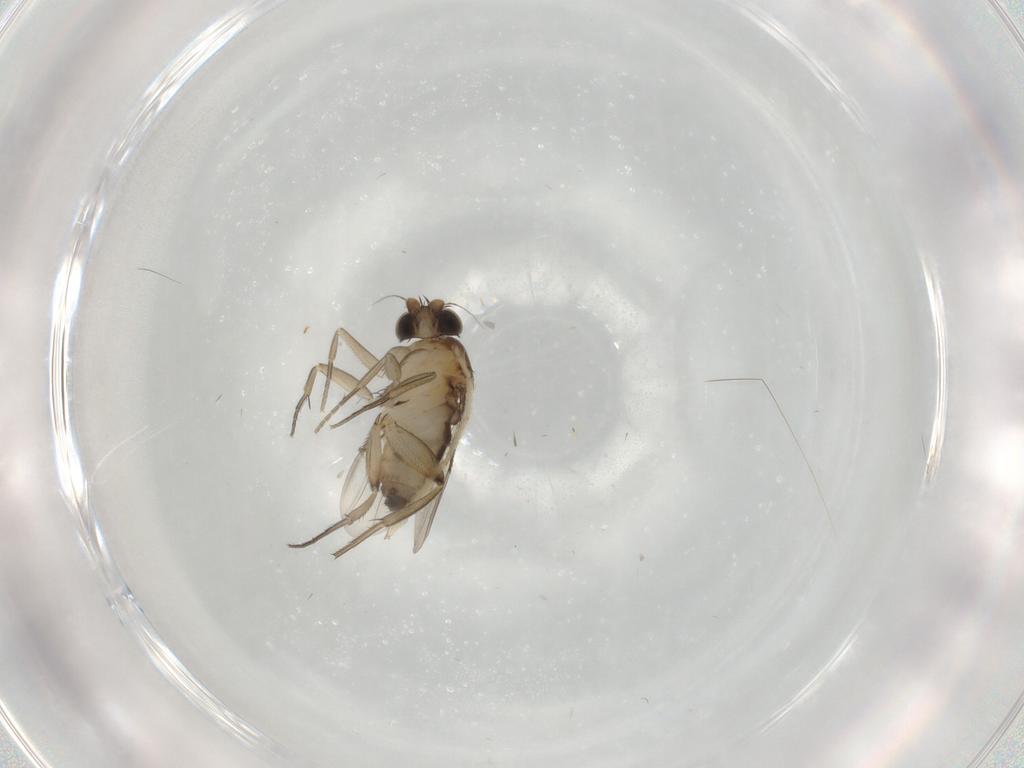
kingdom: Animalia
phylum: Arthropoda
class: Insecta
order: Diptera
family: Phoridae
